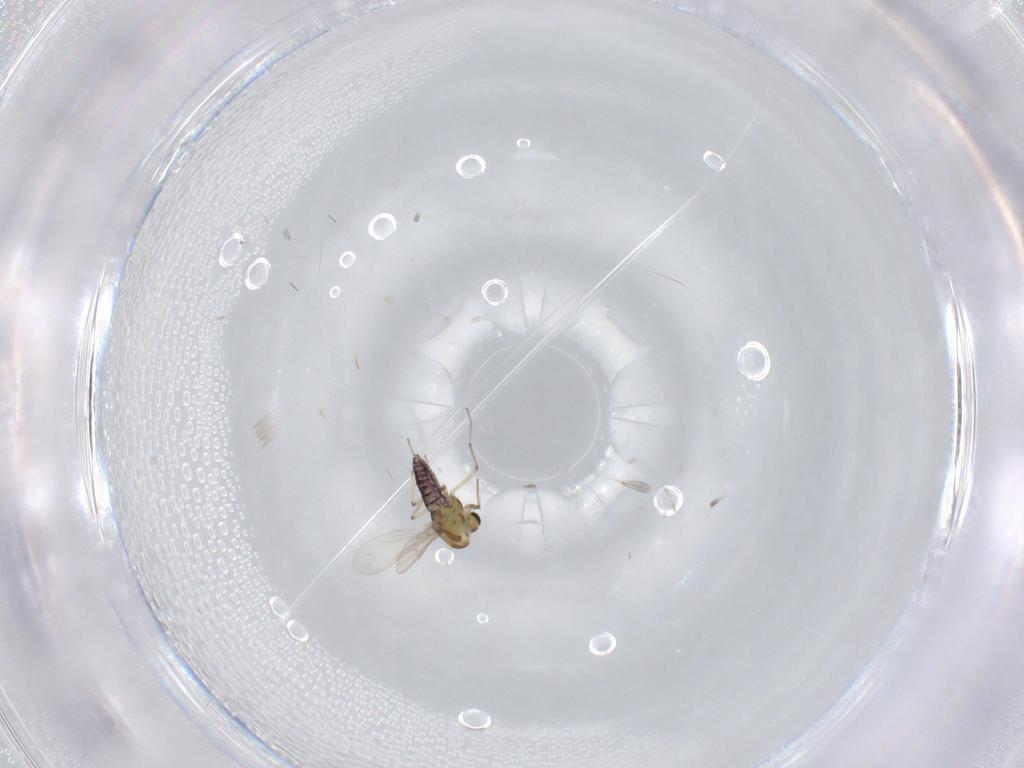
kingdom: Animalia
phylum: Arthropoda
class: Insecta
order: Diptera
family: Chironomidae
